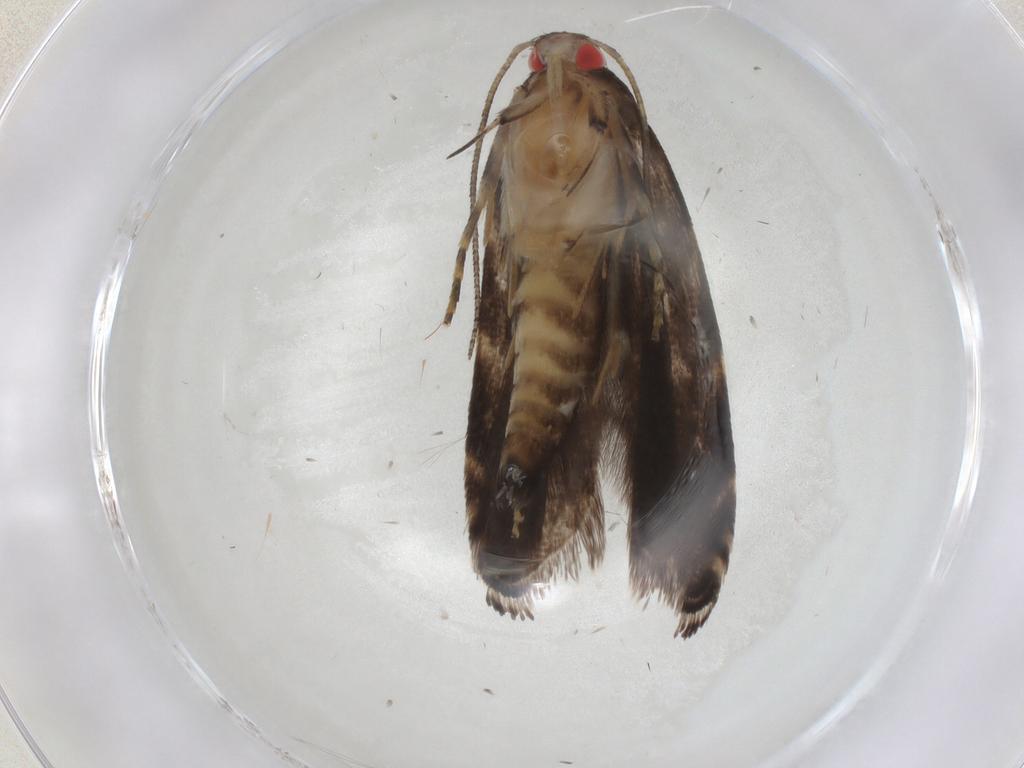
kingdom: Animalia
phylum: Arthropoda
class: Insecta
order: Lepidoptera
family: Gelechiidae
